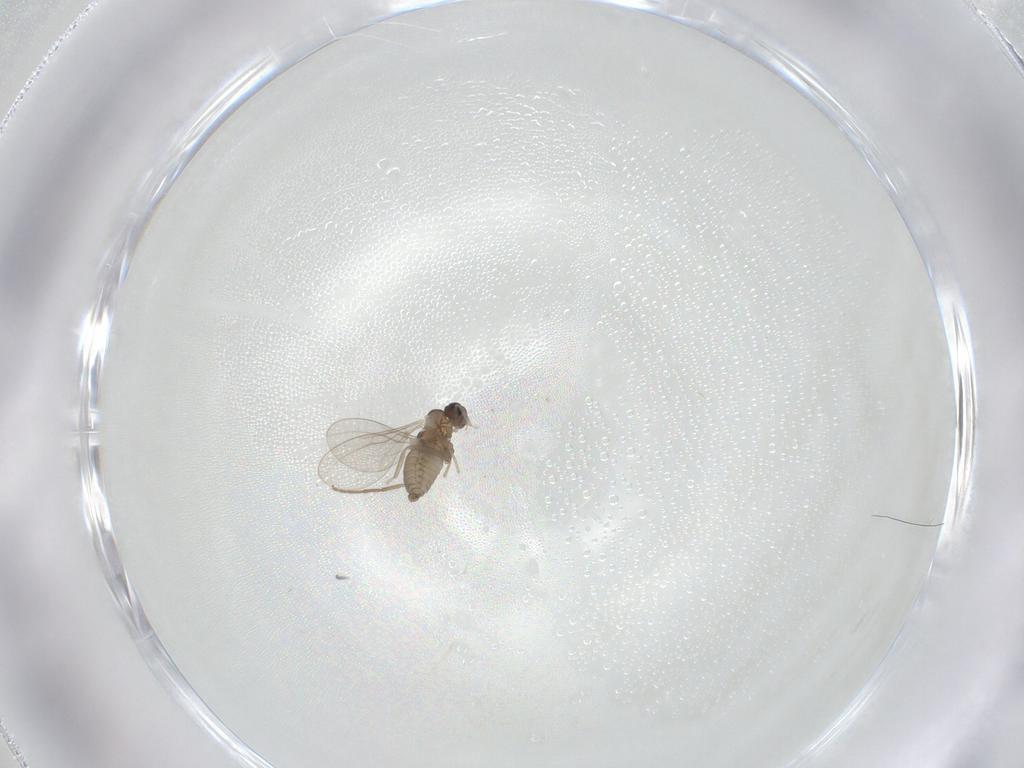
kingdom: Animalia
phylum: Arthropoda
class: Insecta
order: Diptera
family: Cecidomyiidae
